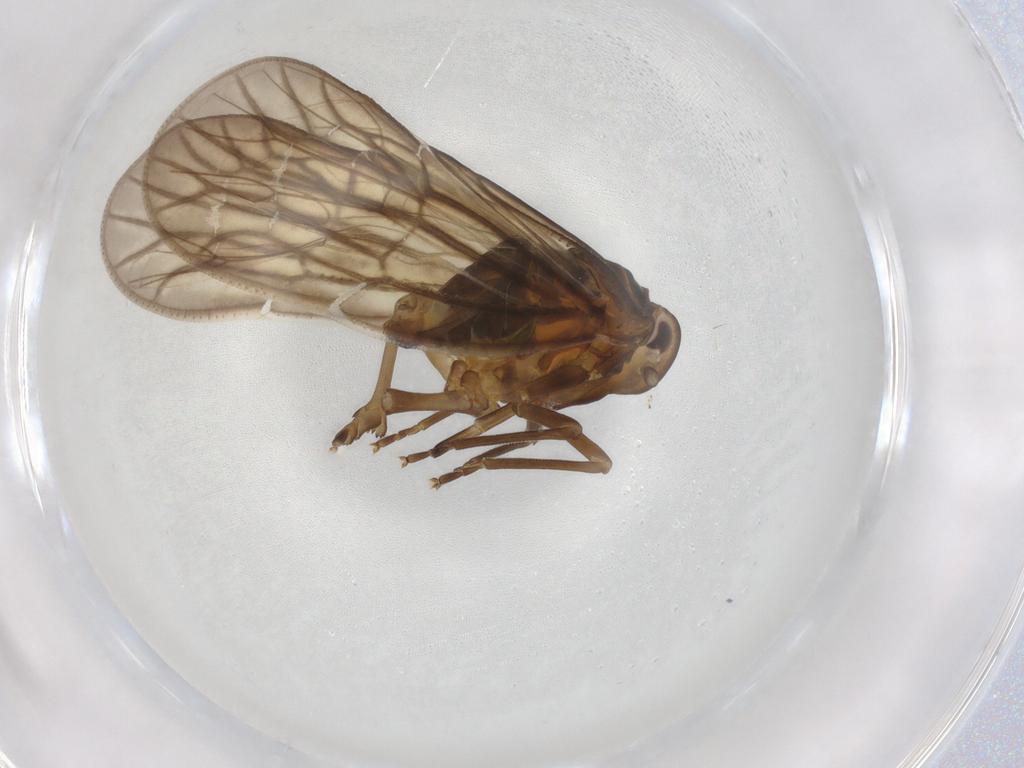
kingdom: Animalia
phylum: Arthropoda
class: Insecta
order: Hemiptera
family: Meenoplidae
